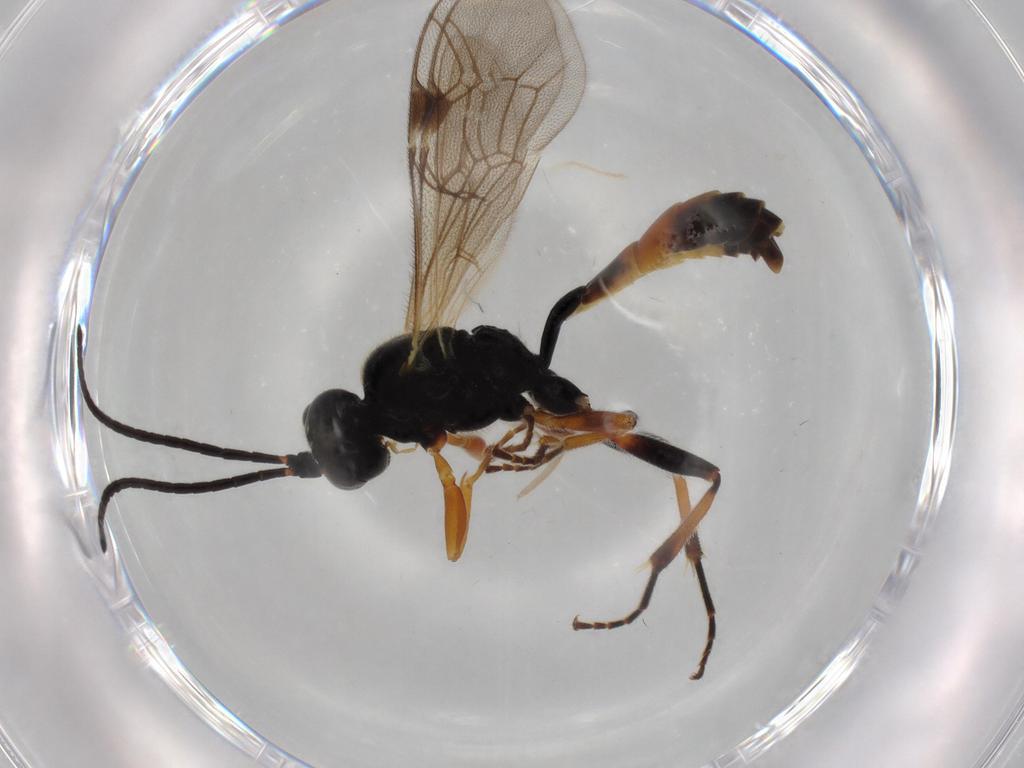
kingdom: Animalia
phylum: Arthropoda
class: Insecta
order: Hymenoptera
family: Ichneumonidae
